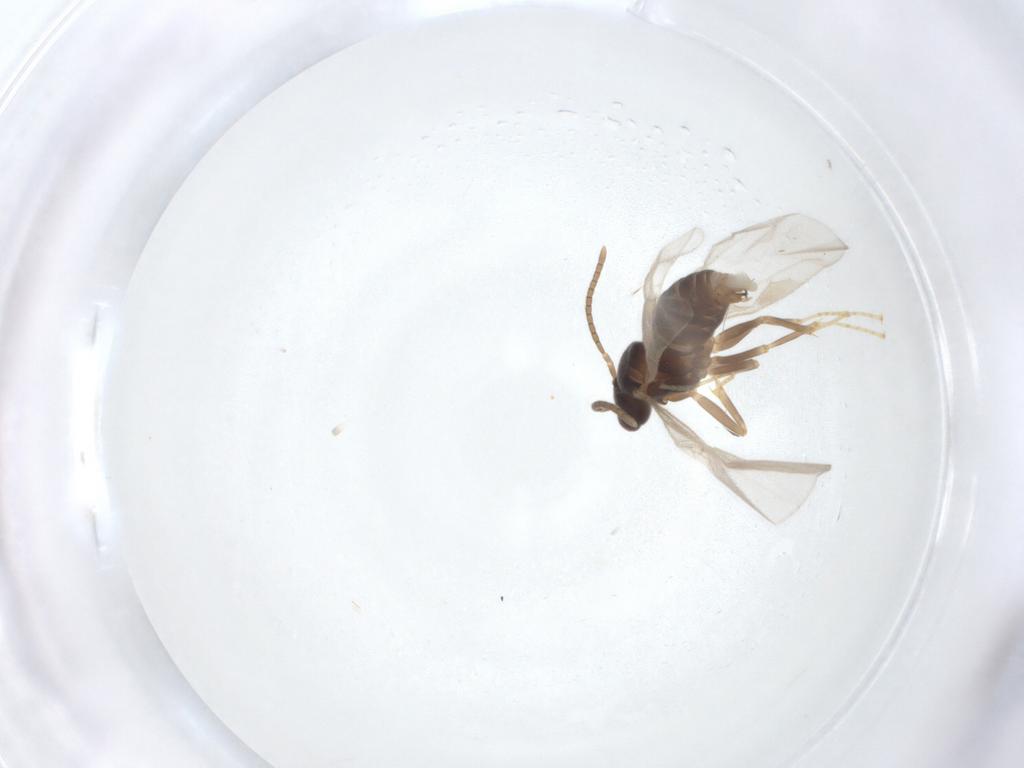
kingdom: Animalia
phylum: Arthropoda
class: Insecta
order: Hymenoptera
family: Formicidae
